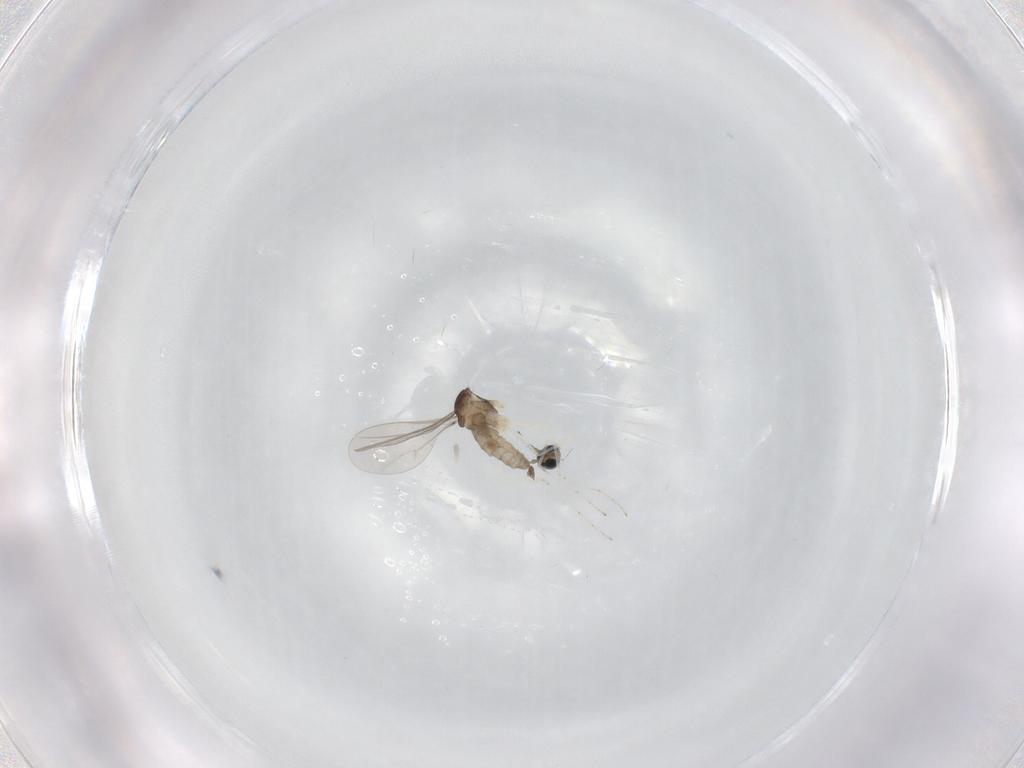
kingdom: Animalia
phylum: Arthropoda
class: Insecta
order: Diptera
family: Cecidomyiidae
